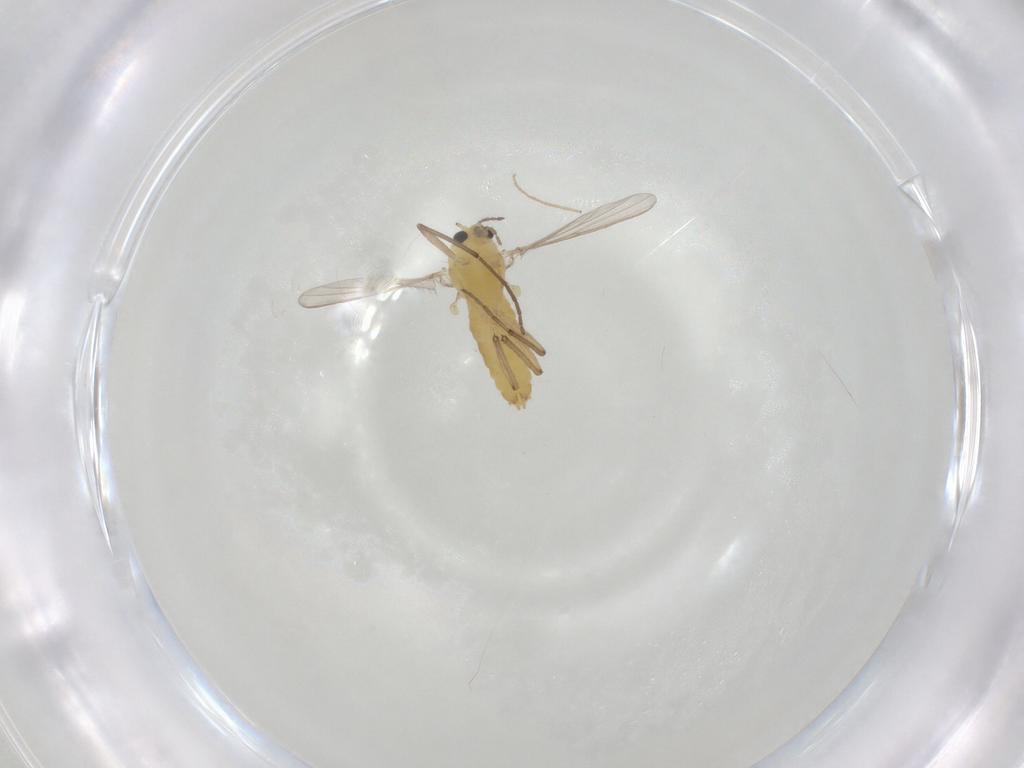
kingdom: Animalia
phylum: Arthropoda
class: Insecta
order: Diptera
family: Chironomidae
